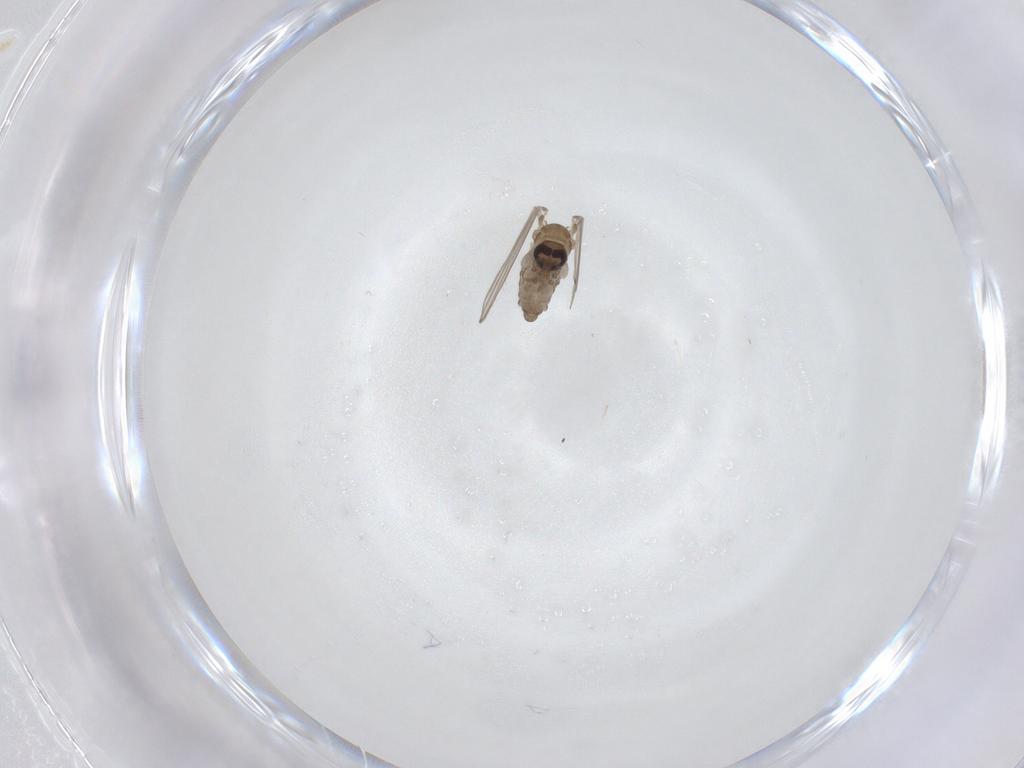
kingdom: Animalia
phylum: Arthropoda
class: Insecta
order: Diptera
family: Psychodidae
